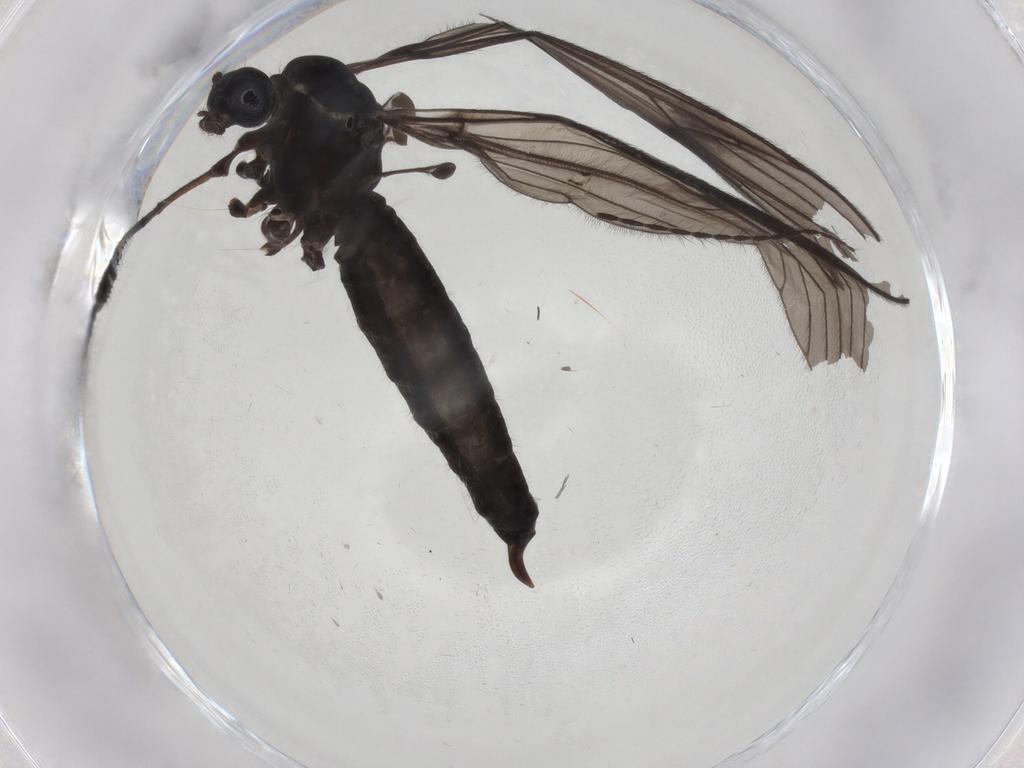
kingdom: Animalia
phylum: Arthropoda
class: Insecta
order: Diptera
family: Limoniidae
